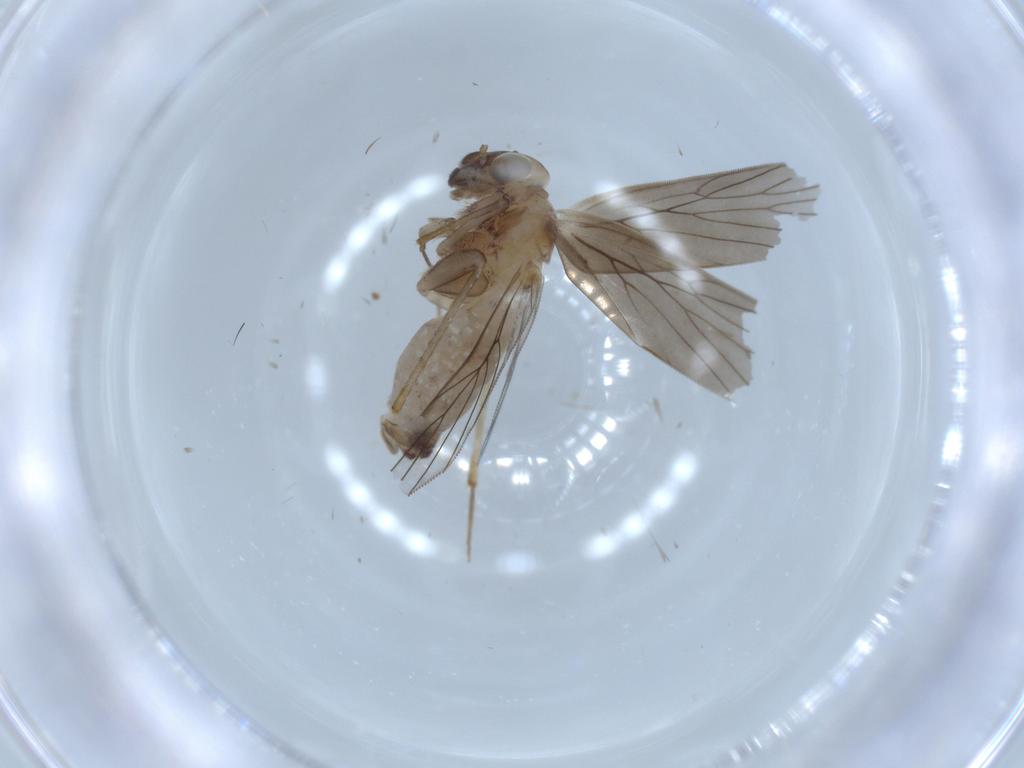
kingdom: Animalia
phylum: Arthropoda
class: Insecta
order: Psocodea
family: Lepidopsocidae
